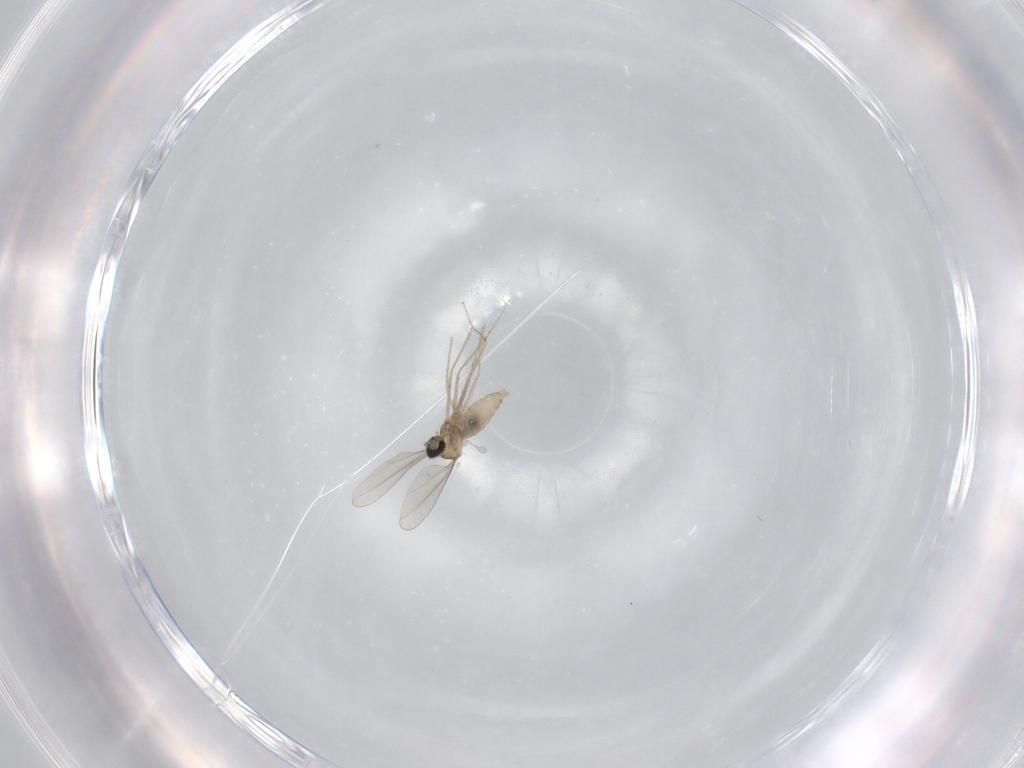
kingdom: Animalia
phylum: Arthropoda
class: Insecta
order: Diptera
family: Cecidomyiidae
